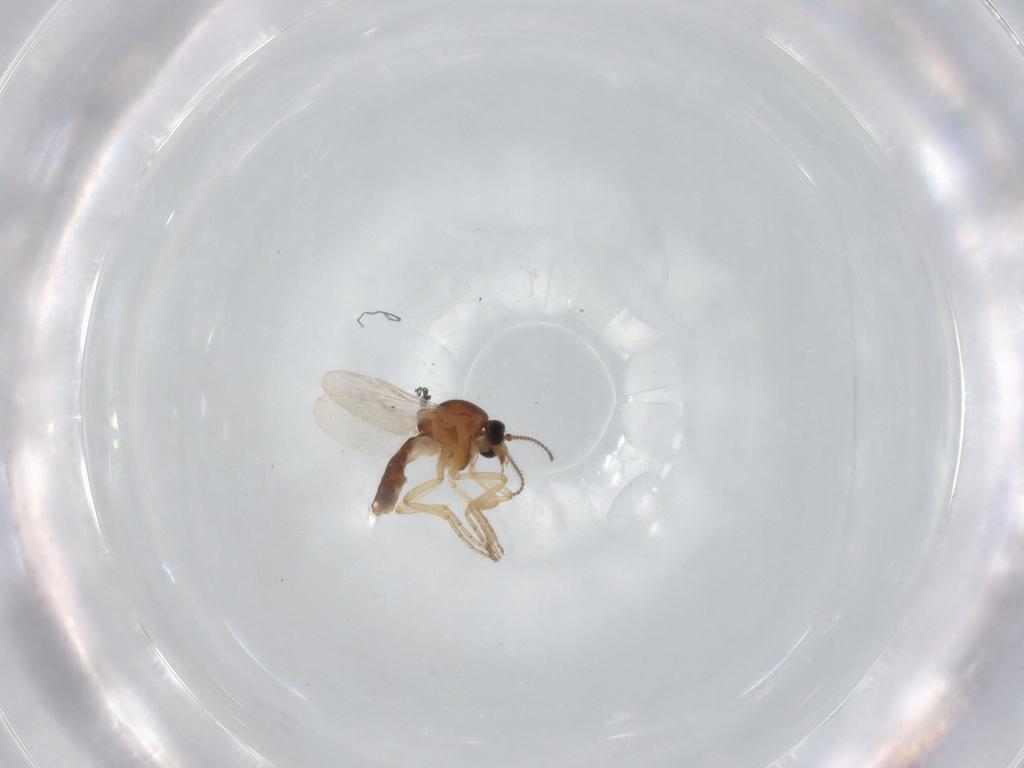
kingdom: Animalia
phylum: Arthropoda
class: Insecta
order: Diptera
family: Ceratopogonidae
